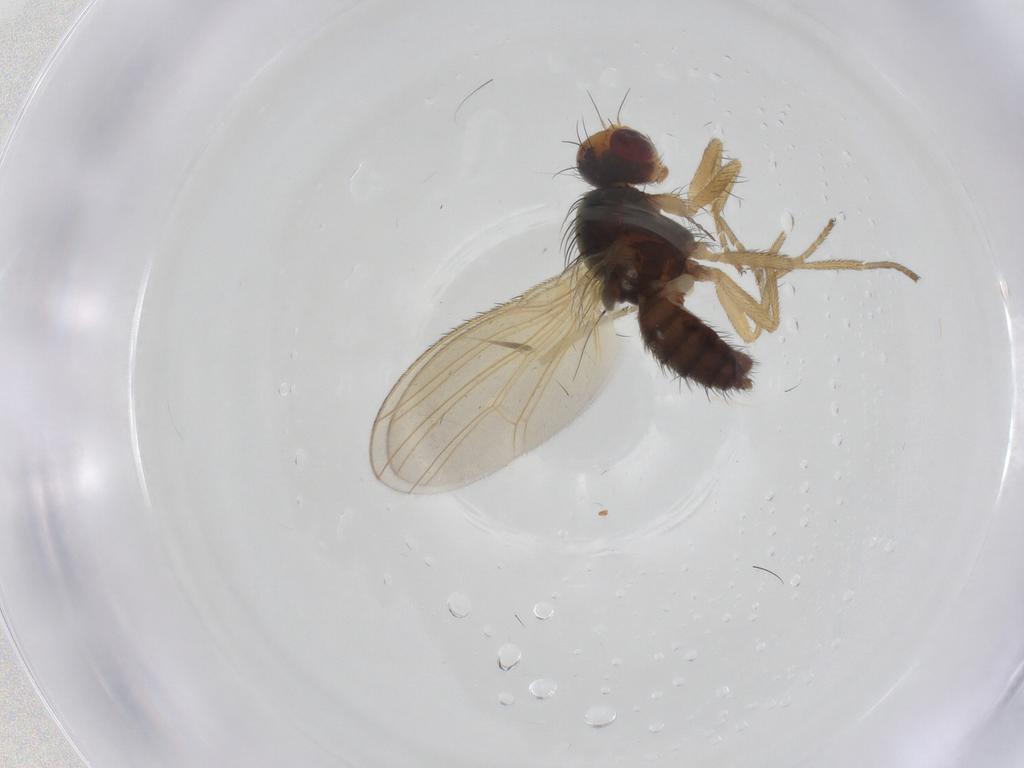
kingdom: Animalia
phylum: Arthropoda
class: Insecta
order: Diptera
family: Heleomyzidae
